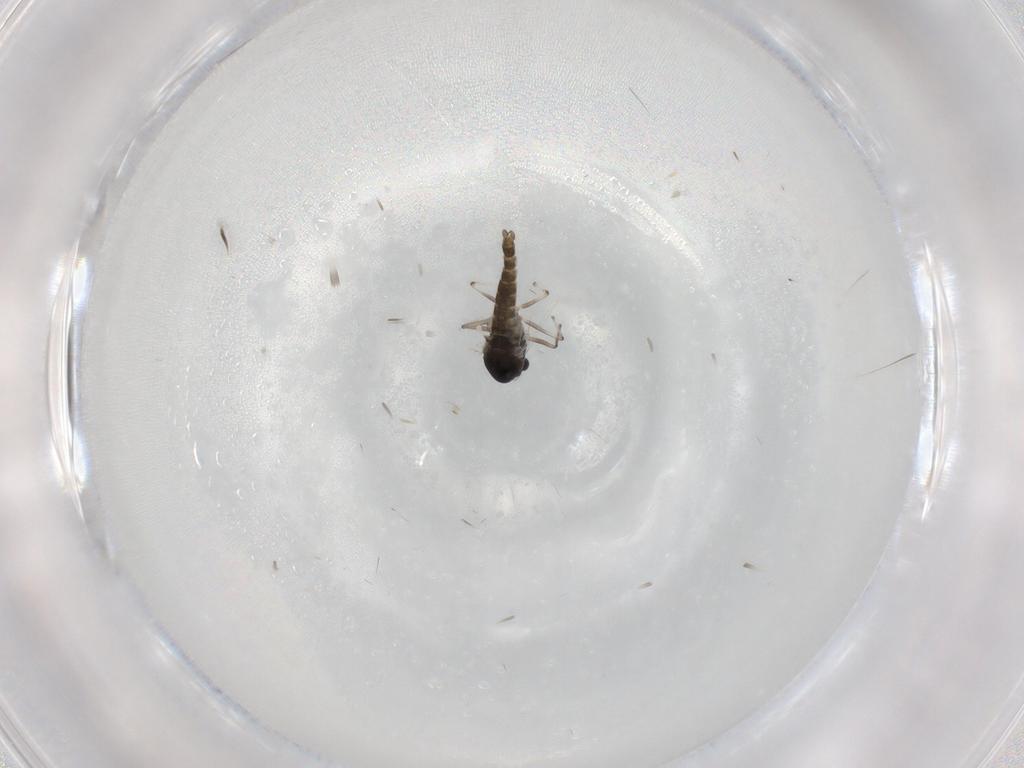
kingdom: Animalia
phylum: Arthropoda
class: Insecta
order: Diptera
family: Chironomidae
